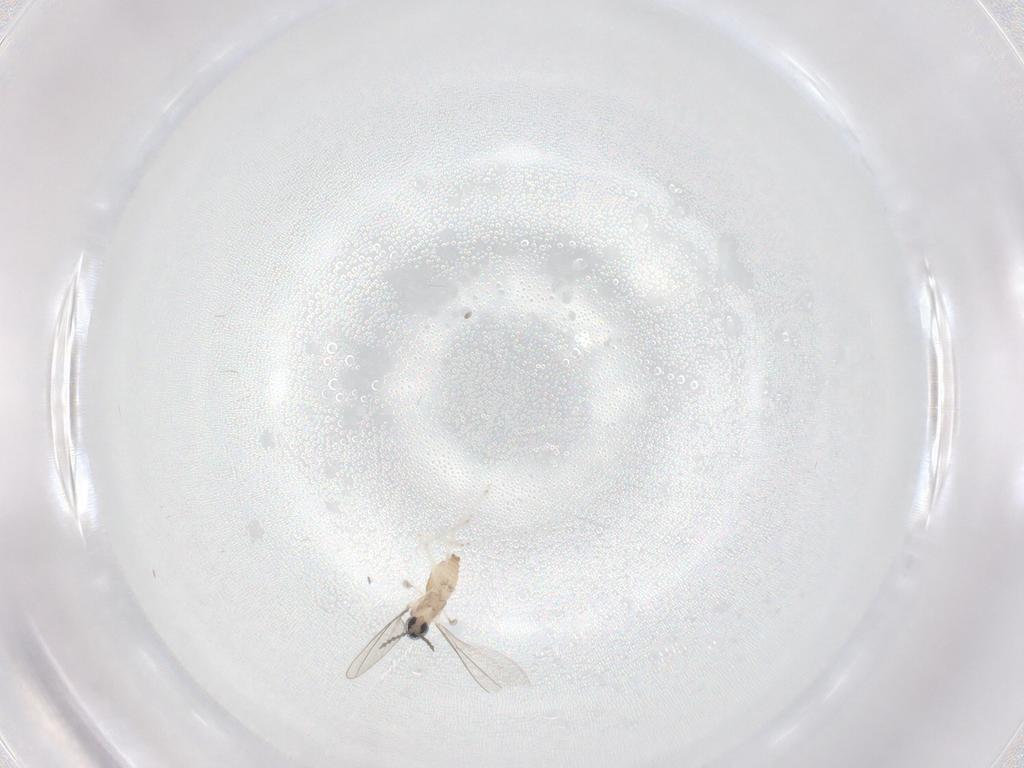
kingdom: Animalia
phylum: Arthropoda
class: Insecta
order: Diptera
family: Cecidomyiidae
